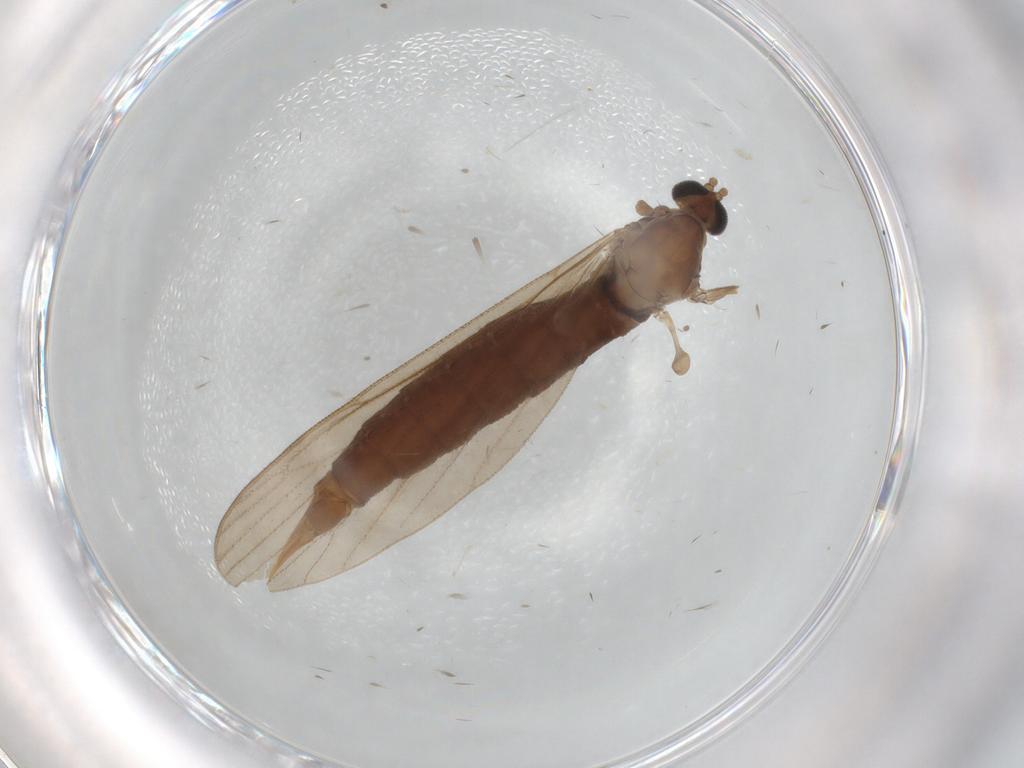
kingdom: Animalia
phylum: Arthropoda
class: Insecta
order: Diptera
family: Limoniidae
